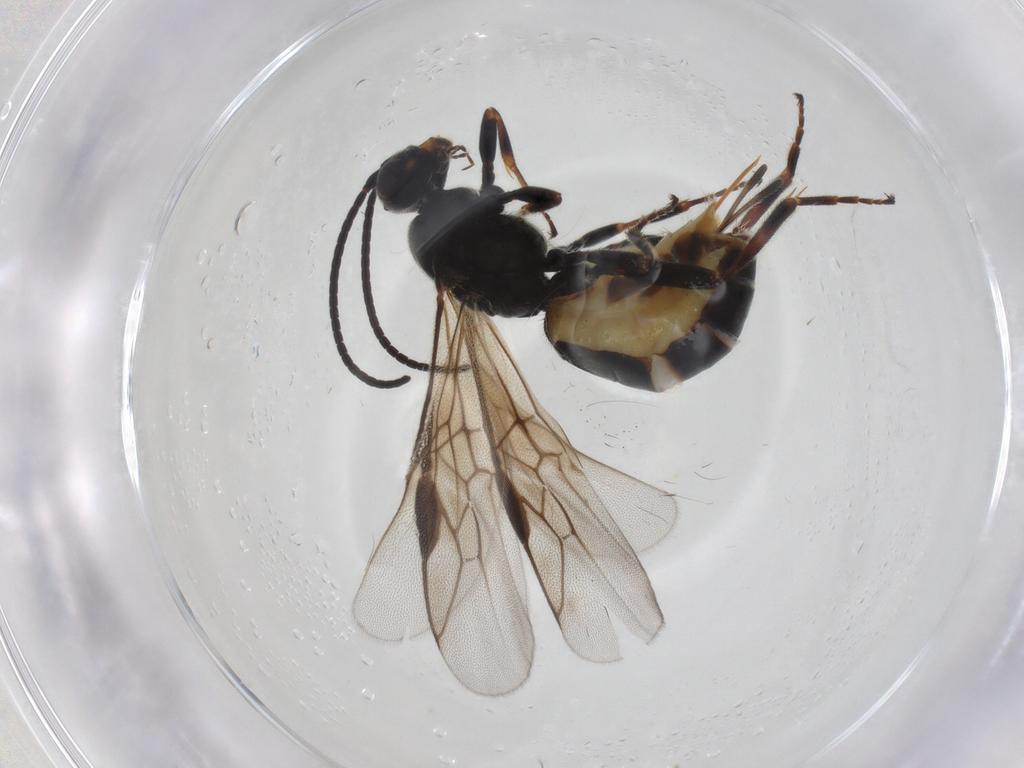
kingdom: Animalia
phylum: Arthropoda
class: Insecta
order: Hymenoptera
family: Braconidae
